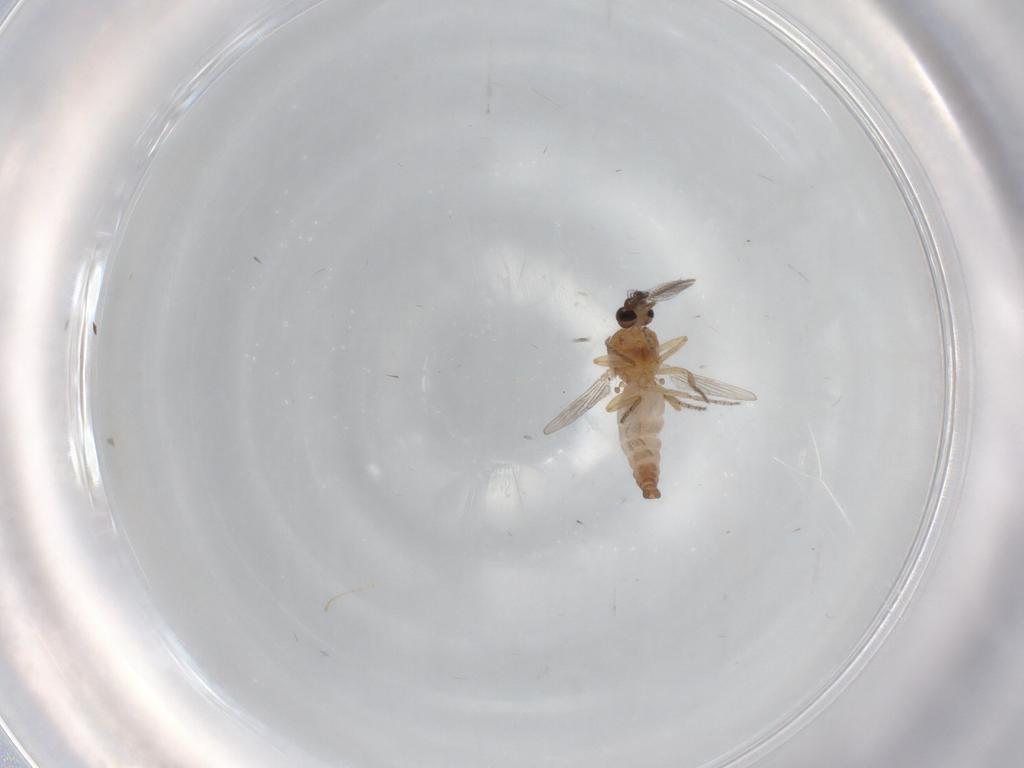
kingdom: Animalia
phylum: Arthropoda
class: Insecta
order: Diptera
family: Ceratopogonidae
